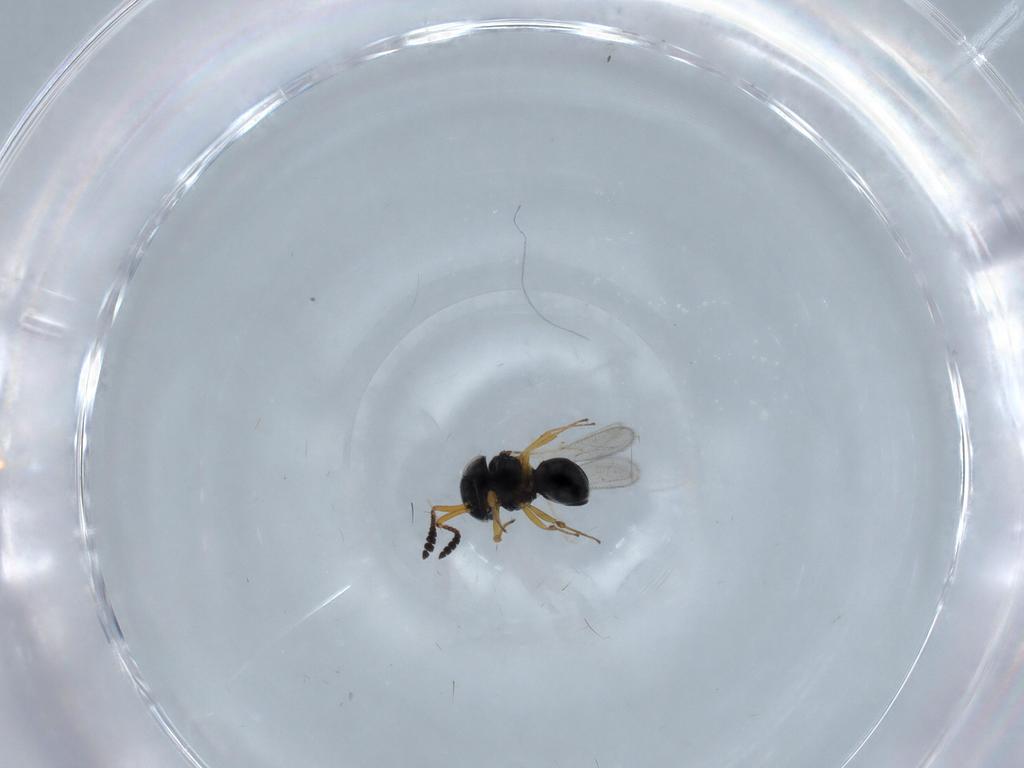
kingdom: Animalia
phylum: Arthropoda
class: Insecta
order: Hymenoptera
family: Scelionidae
